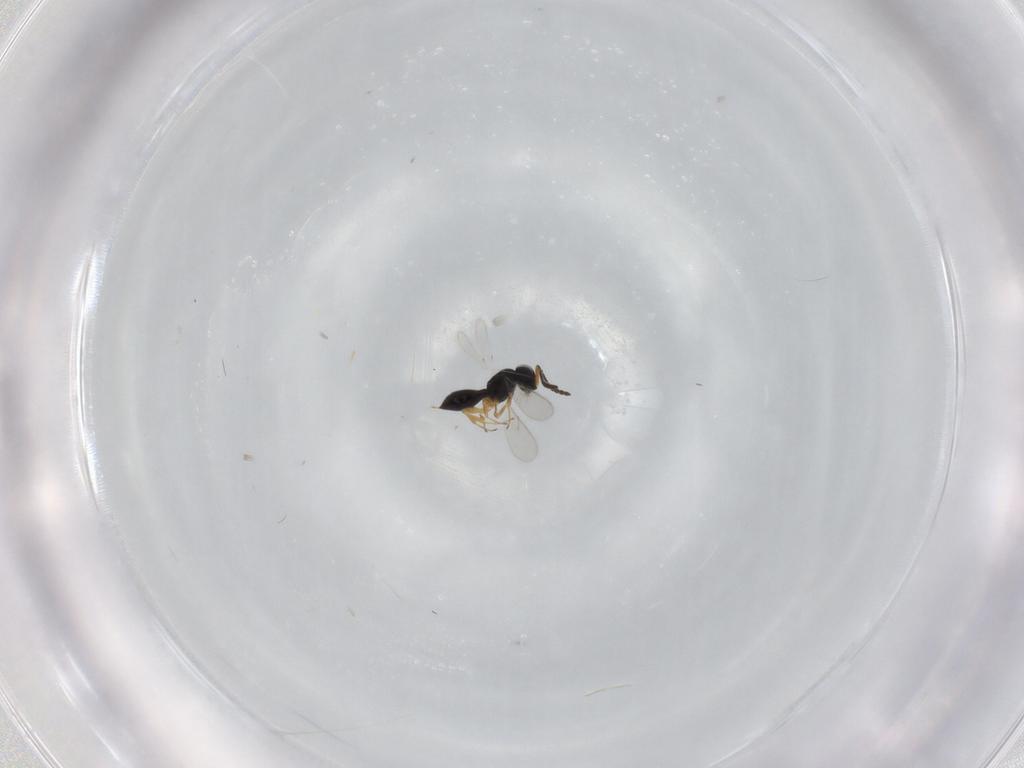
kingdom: Animalia
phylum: Arthropoda
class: Insecta
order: Hymenoptera
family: Scelionidae
